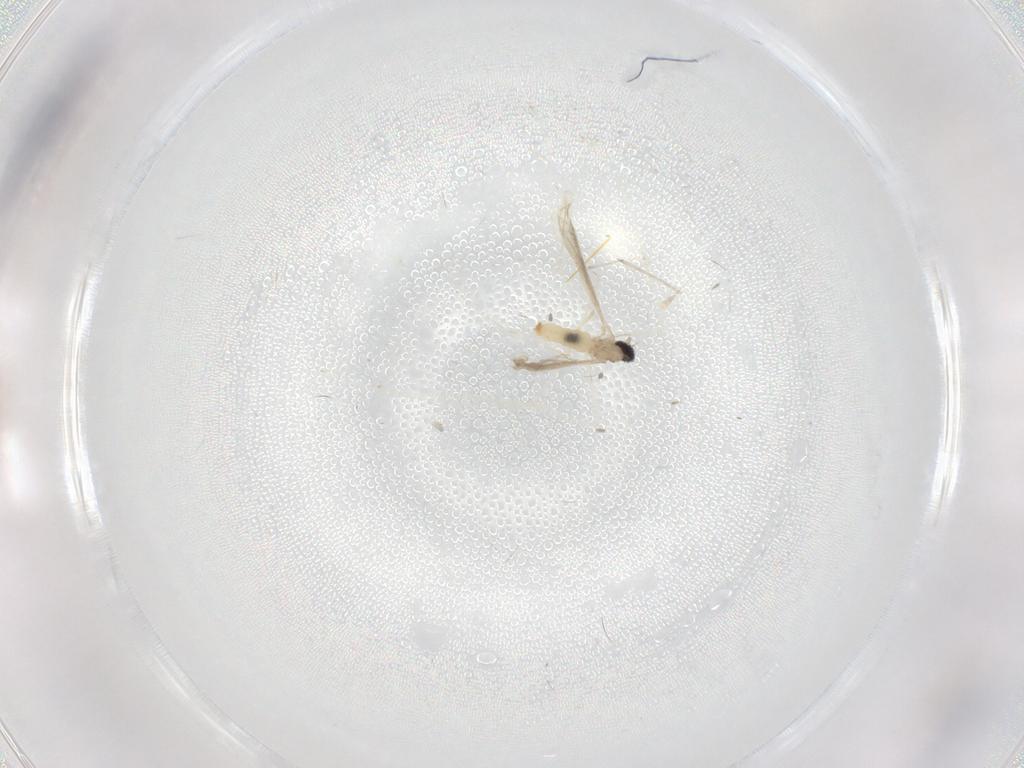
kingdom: Animalia
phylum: Arthropoda
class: Insecta
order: Diptera
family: Cecidomyiidae
